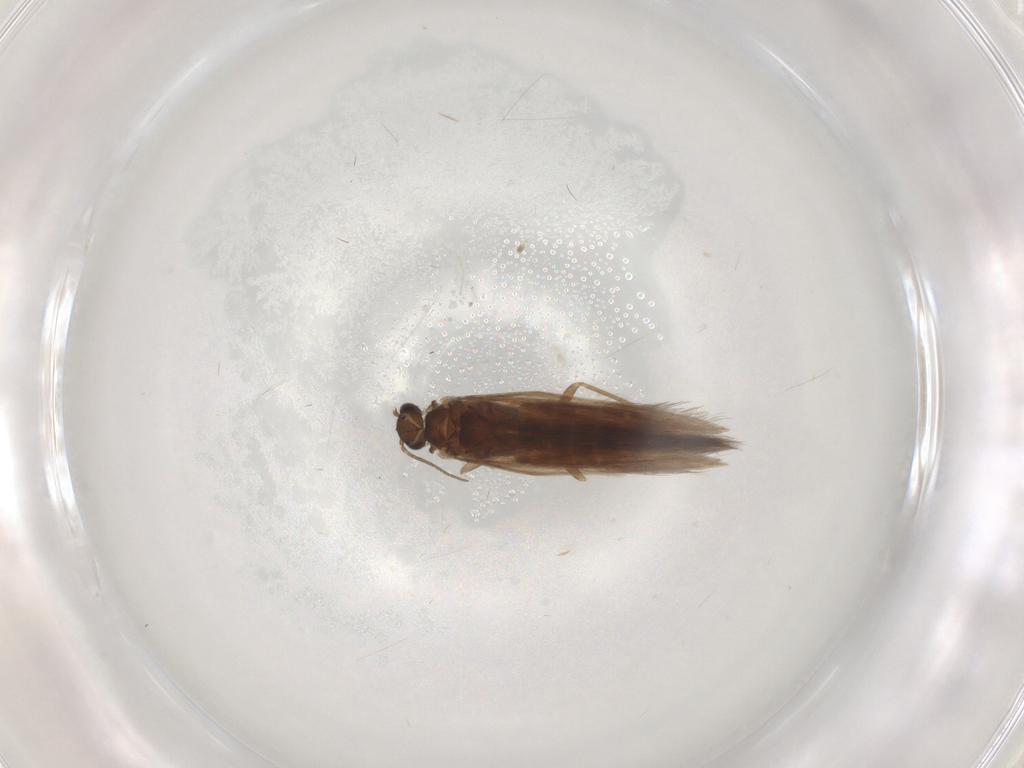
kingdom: Animalia
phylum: Arthropoda
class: Insecta
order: Trichoptera
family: Hydroptilidae
